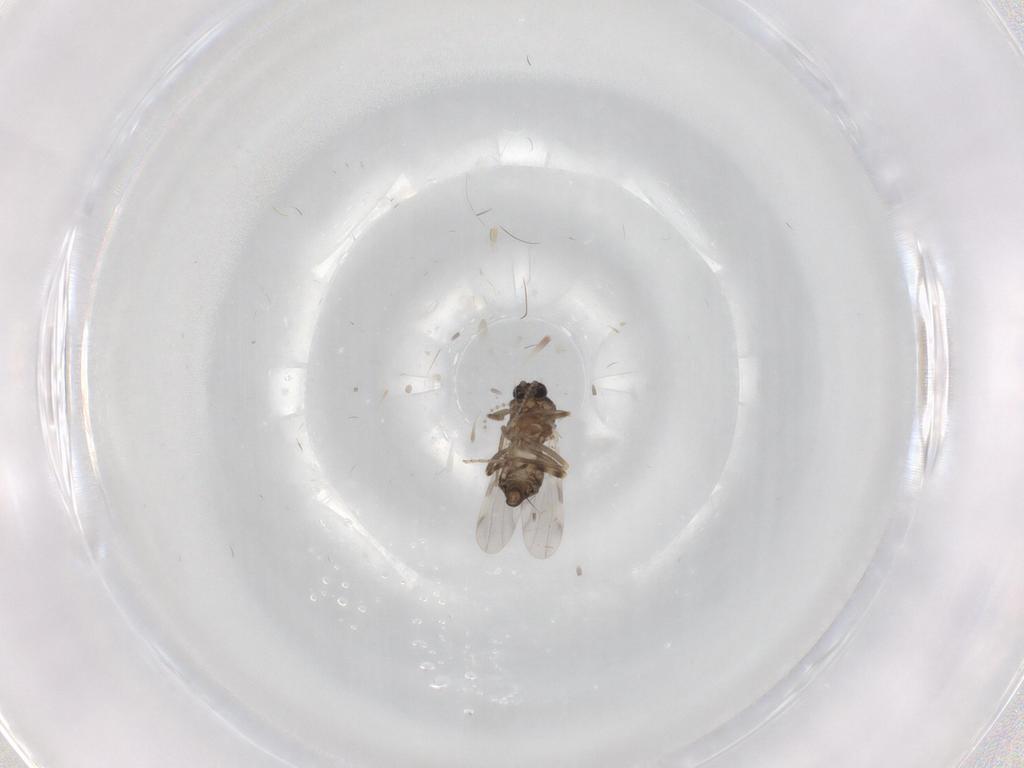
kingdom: Animalia
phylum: Arthropoda
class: Insecta
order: Diptera
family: Ceratopogonidae
